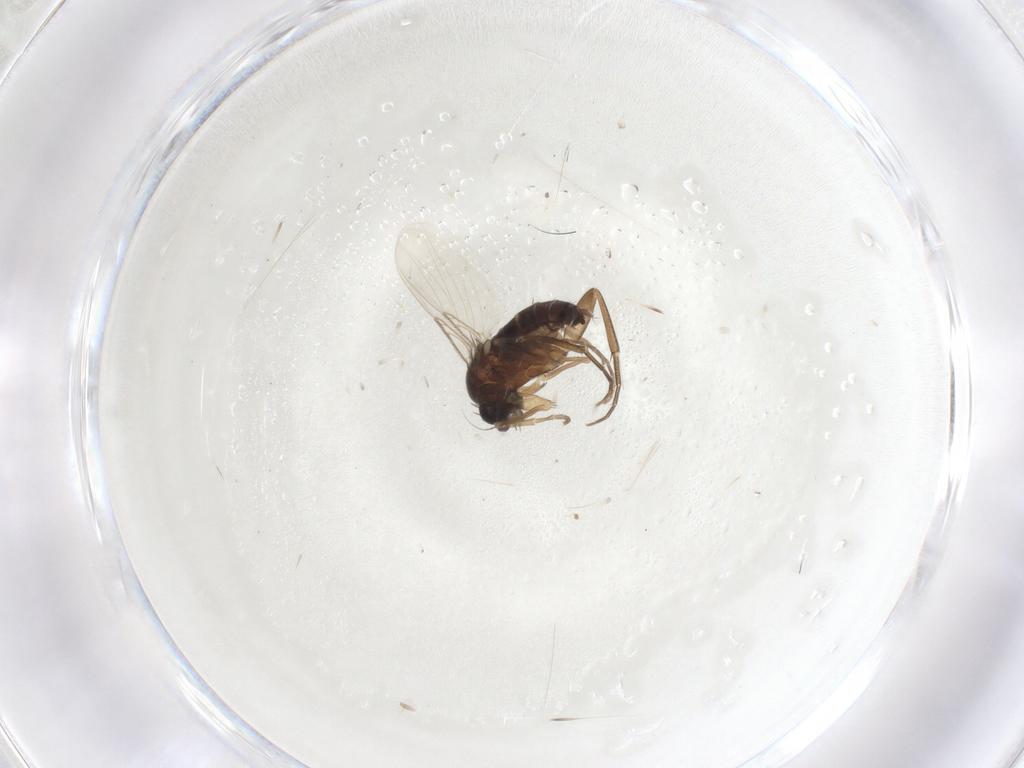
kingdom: Animalia
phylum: Arthropoda
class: Insecta
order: Diptera
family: Phoridae
